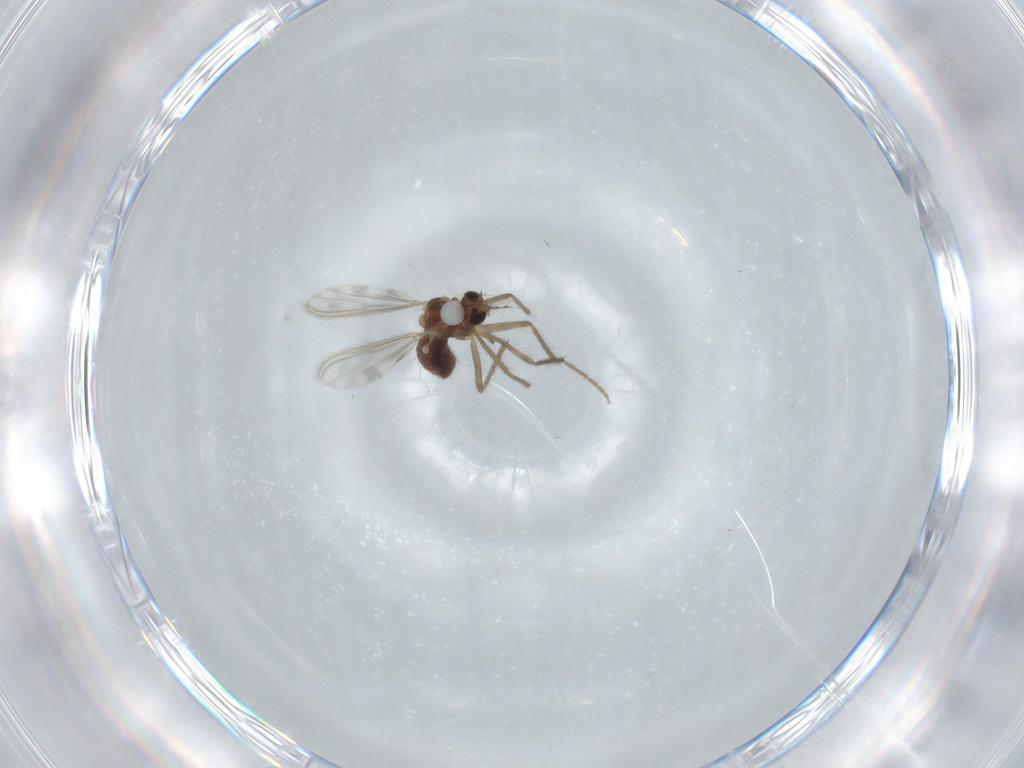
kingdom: Animalia
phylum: Arthropoda
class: Insecta
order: Diptera
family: Chironomidae
